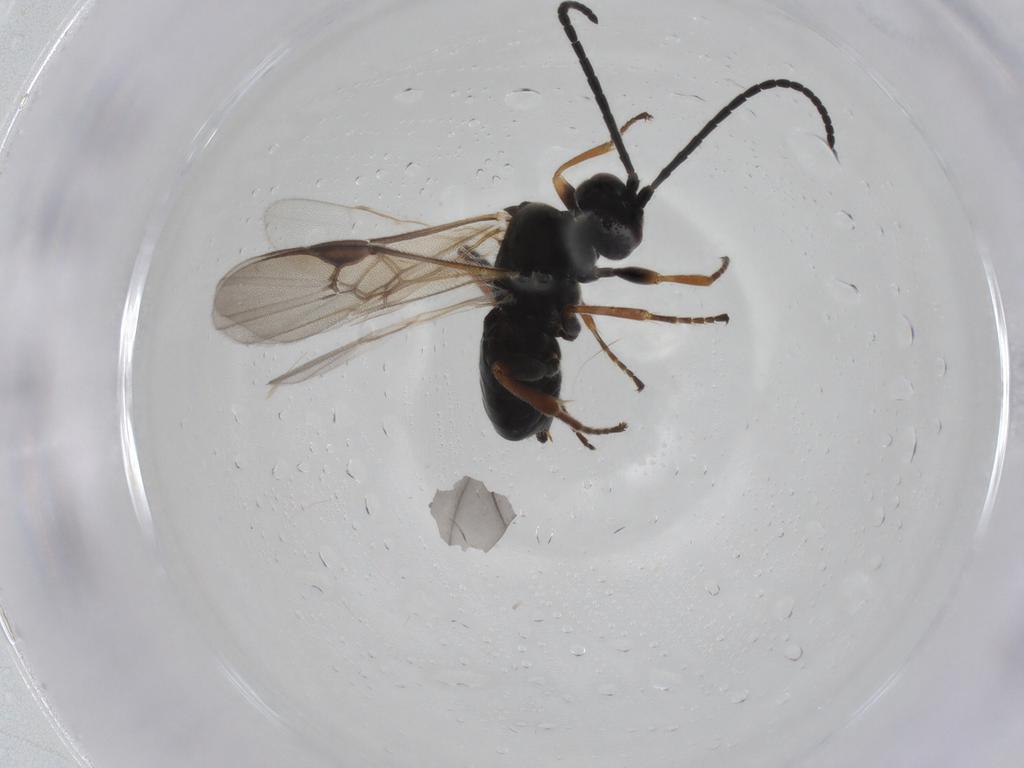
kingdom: Animalia
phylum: Arthropoda
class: Insecta
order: Hymenoptera
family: Braconidae
